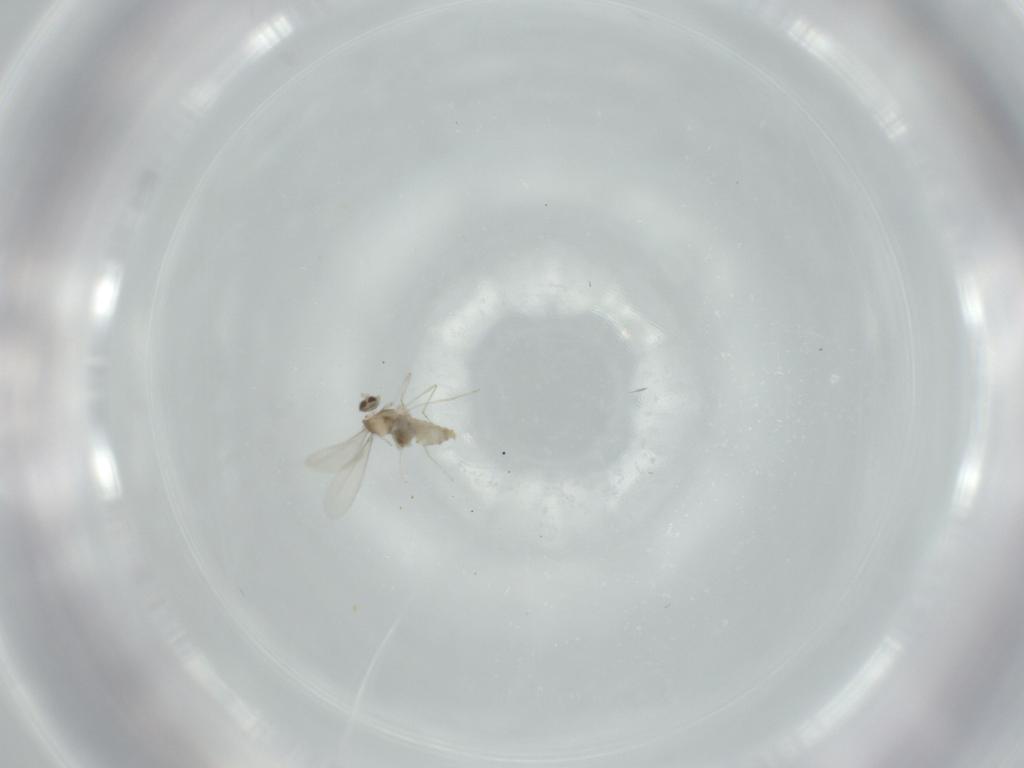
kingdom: Animalia
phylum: Arthropoda
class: Insecta
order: Diptera
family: Cecidomyiidae
